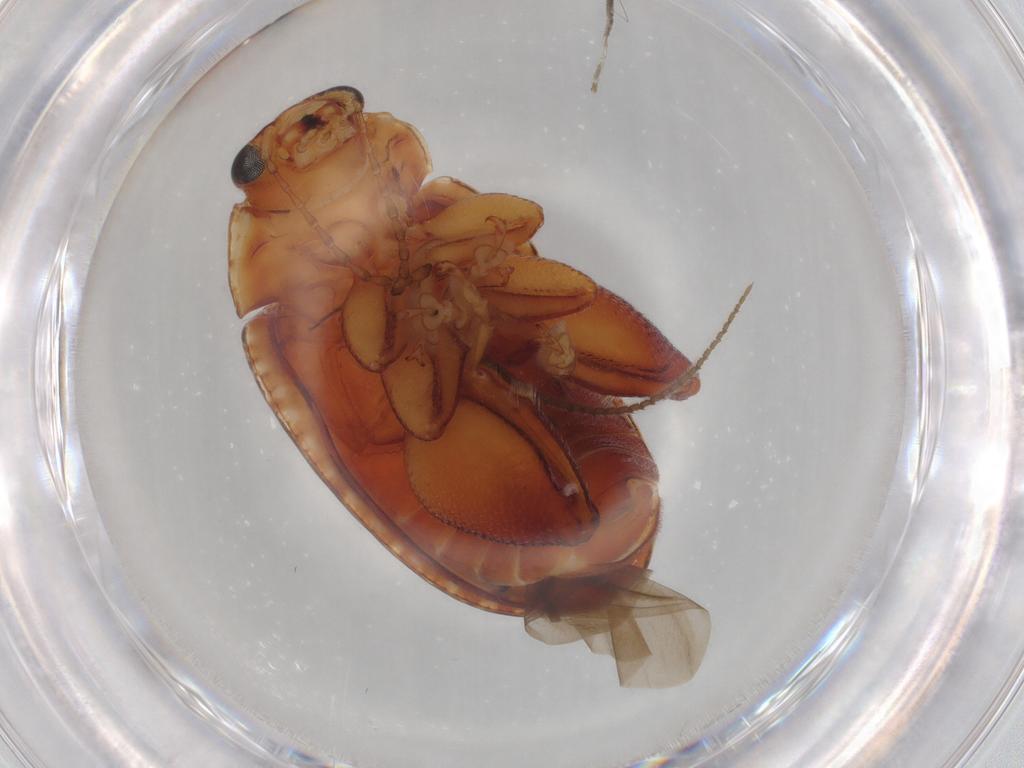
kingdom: Animalia
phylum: Arthropoda
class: Insecta
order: Coleoptera
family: Chrysomelidae
